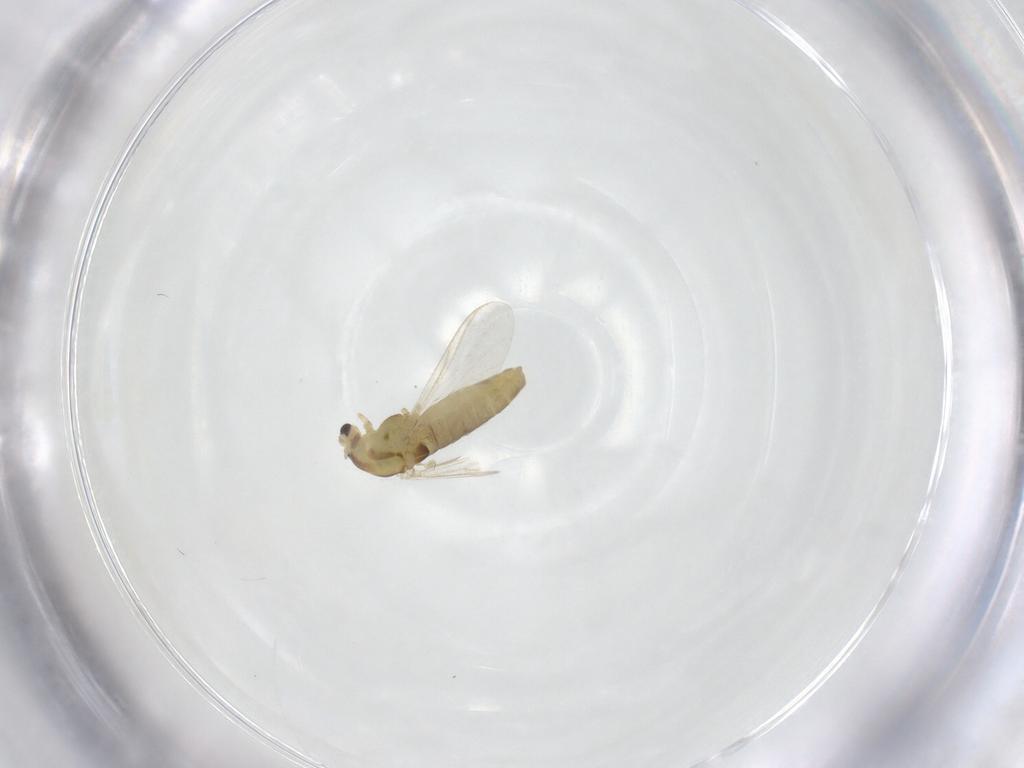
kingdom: Animalia
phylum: Arthropoda
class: Insecta
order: Diptera
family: Chironomidae
